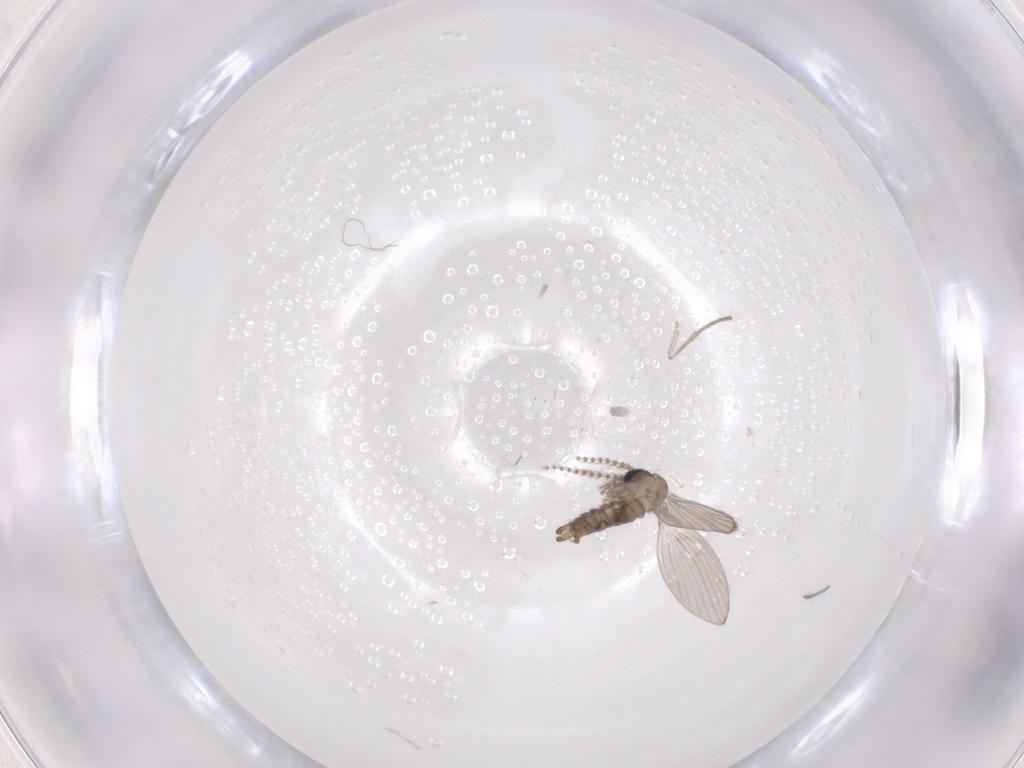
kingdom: Animalia
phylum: Arthropoda
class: Insecta
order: Diptera
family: Psychodidae
